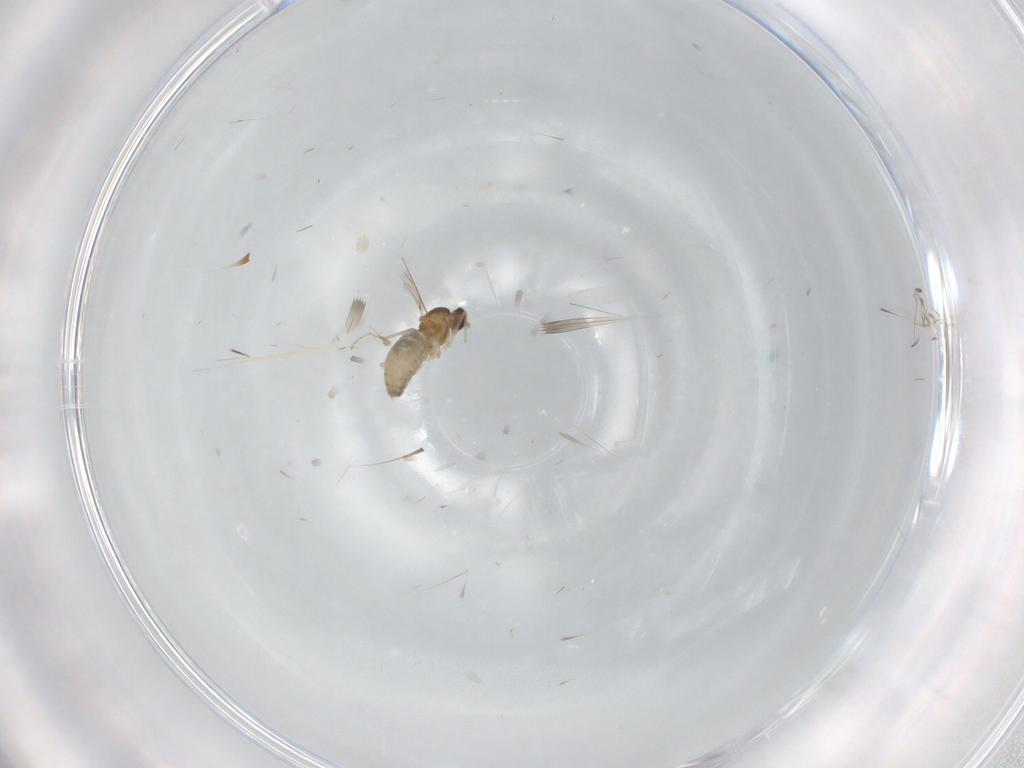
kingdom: Animalia
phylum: Arthropoda
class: Insecta
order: Diptera
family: Cecidomyiidae
